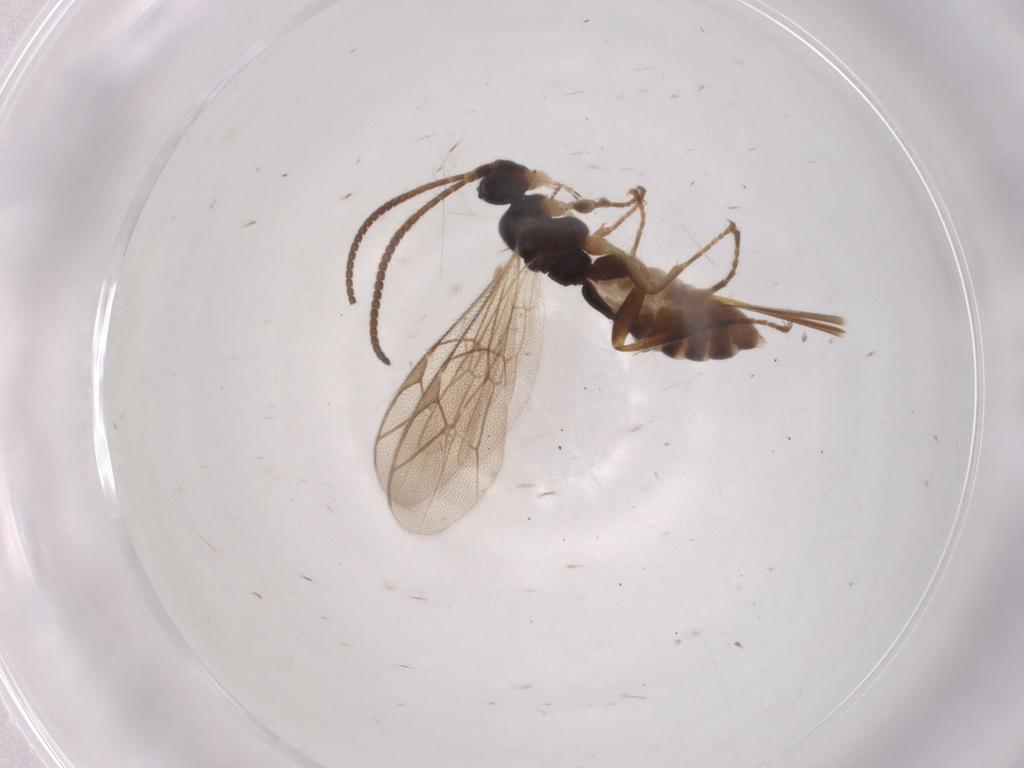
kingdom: Animalia
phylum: Arthropoda
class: Insecta
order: Hymenoptera
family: Ichneumonidae
